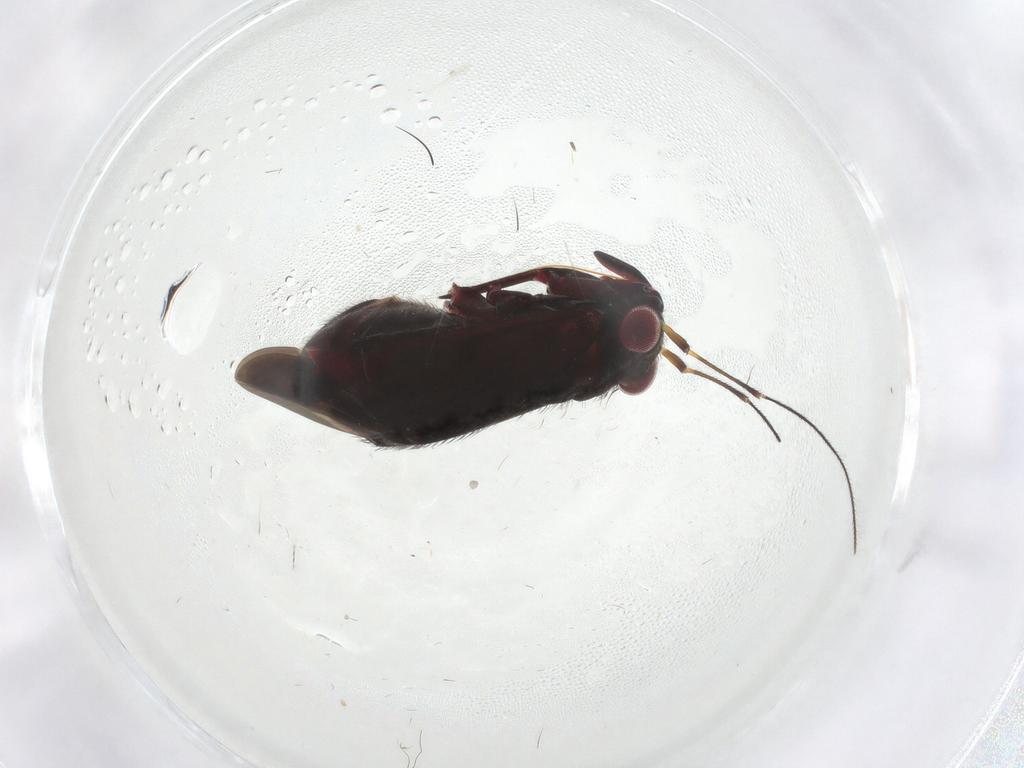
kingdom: Animalia
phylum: Arthropoda
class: Insecta
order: Hemiptera
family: Miridae
